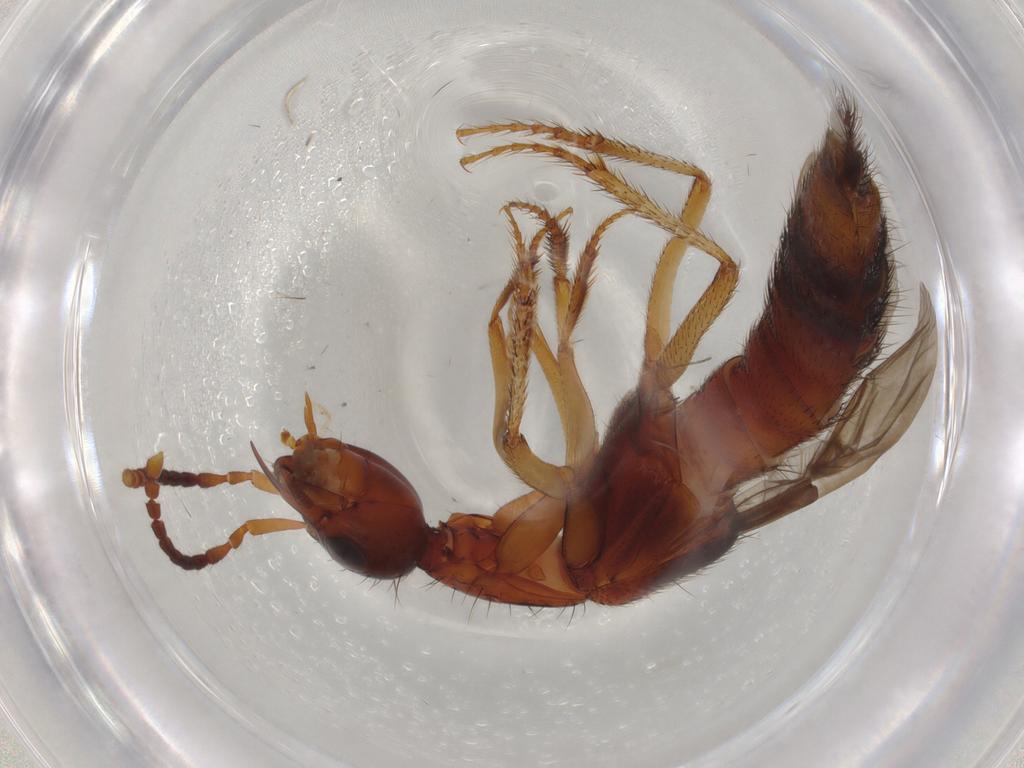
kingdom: Animalia
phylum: Arthropoda
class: Insecta
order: Coleoptera
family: Staphylinidae
